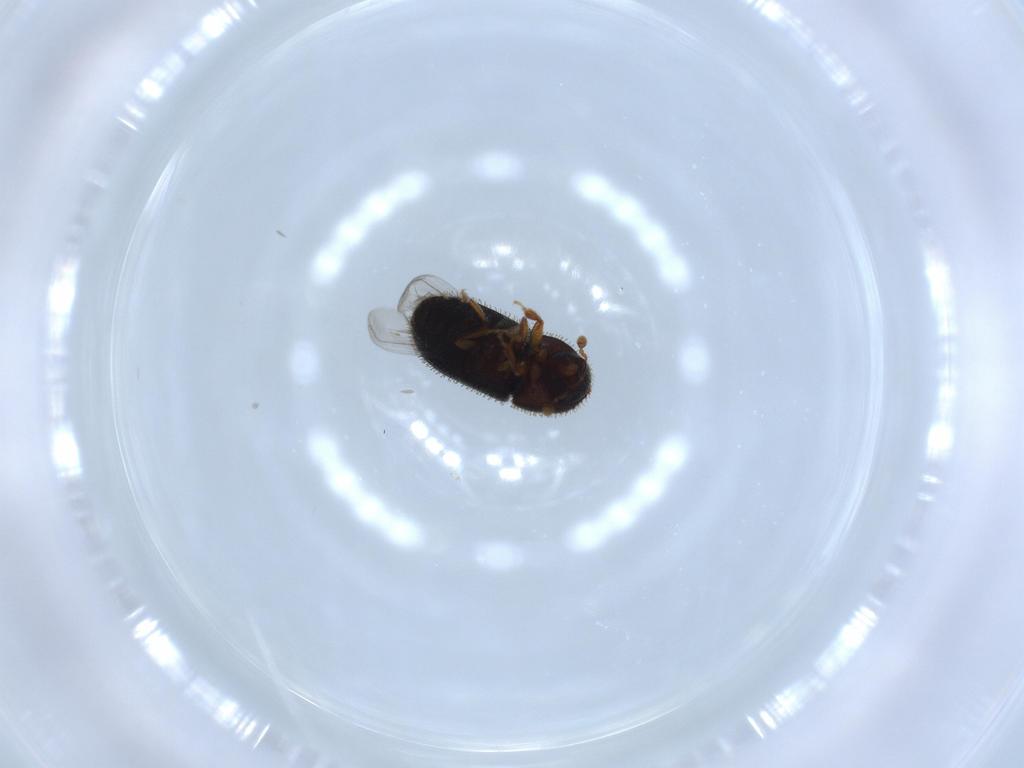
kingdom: Animalia
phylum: Arthropoda
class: Insecta
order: Coleoptera
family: Curculionidae
